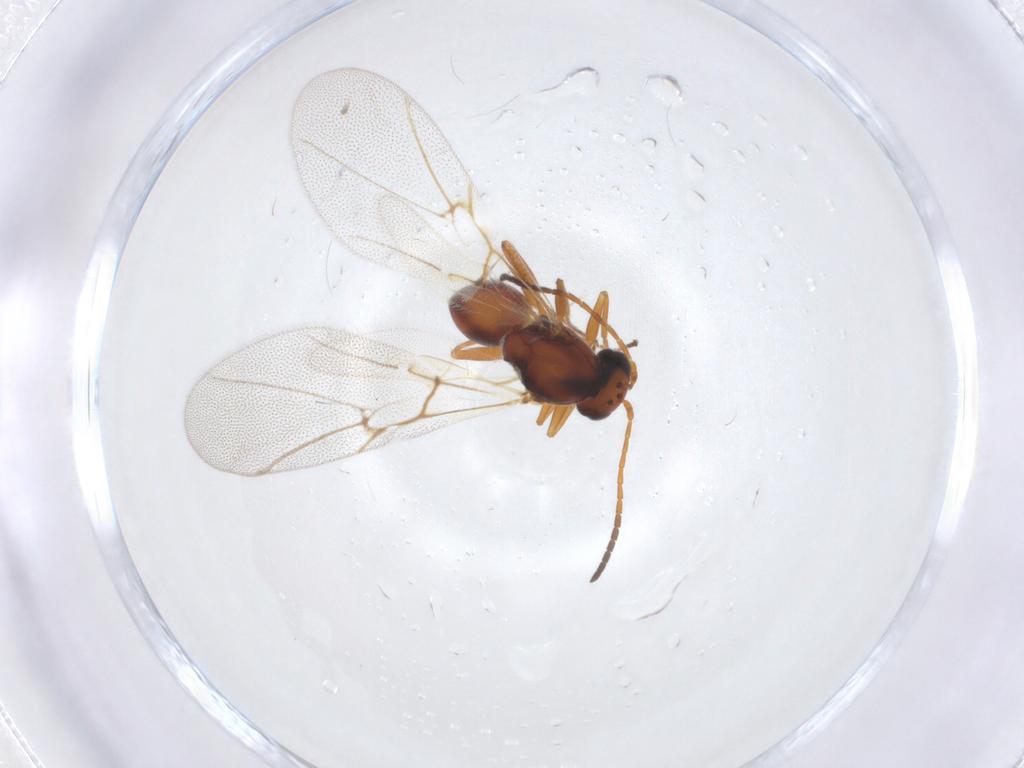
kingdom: Animalia
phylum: Arthropoda
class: Insecta
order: Hymenoptera
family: Cynipidae
